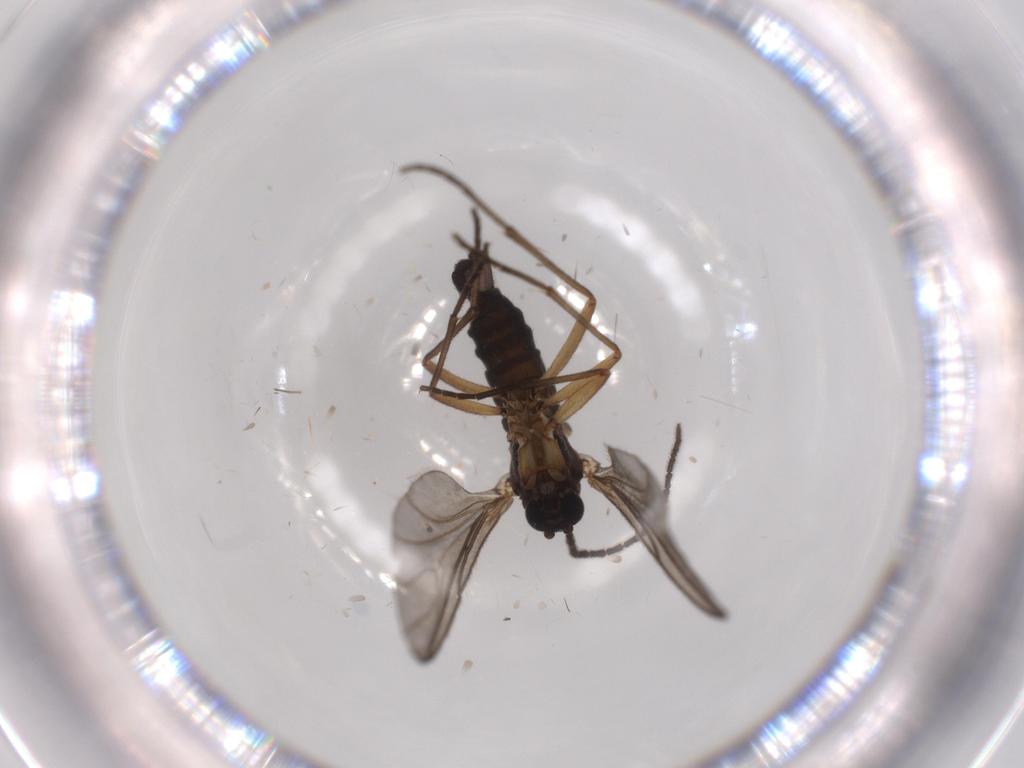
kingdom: Animalia
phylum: Arthropoda
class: Insecta
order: Diptera
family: Sciaridae
